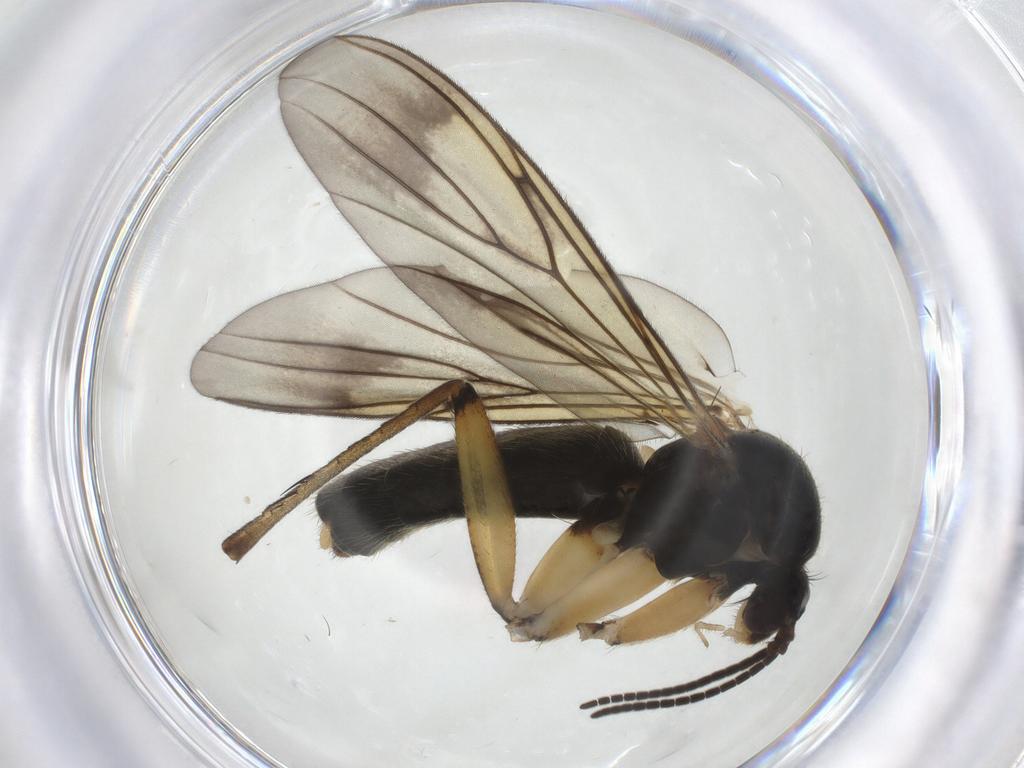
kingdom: Animalia
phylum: Arthropoda
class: Insecta
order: Diptera
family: Mycetophilidae
